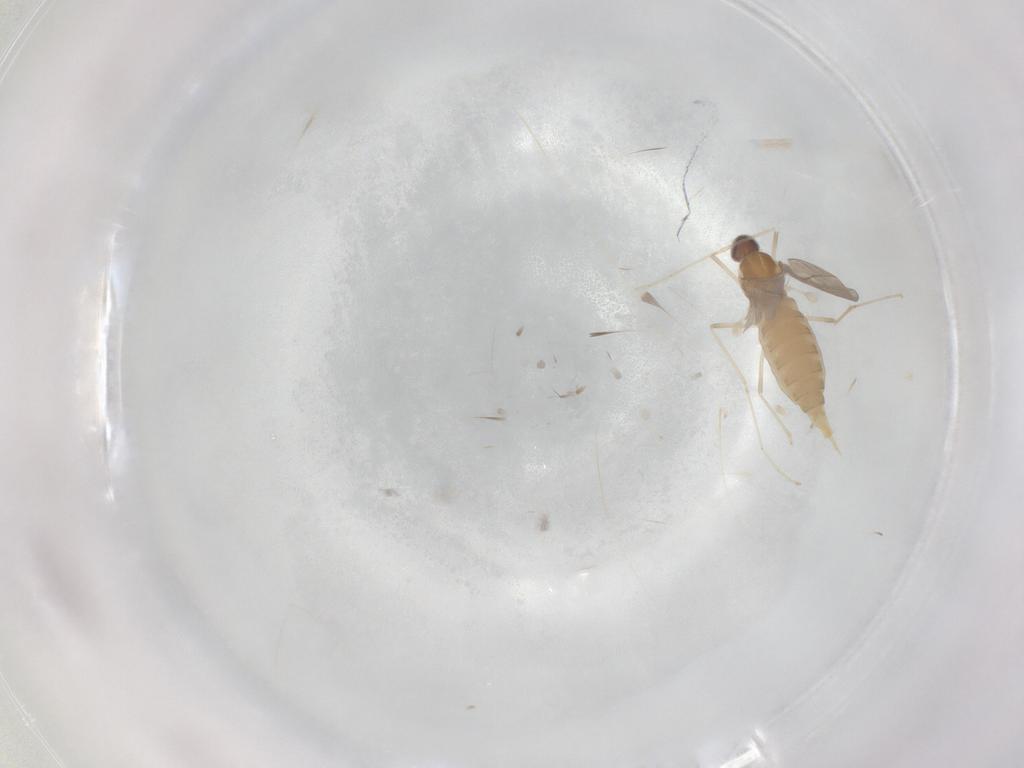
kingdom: Animalia
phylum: Arthropoda
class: Insecta
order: Diptera
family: Cecidomyiidae
